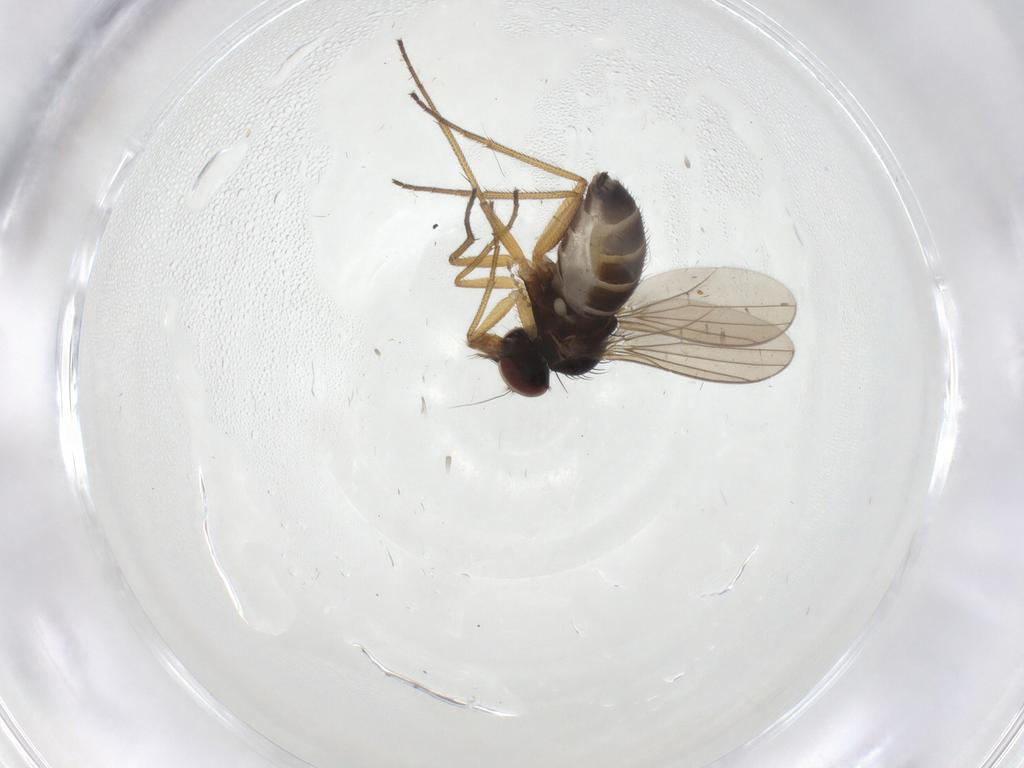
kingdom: Animalia
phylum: Arthropoda
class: Insecta
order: Diptera
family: Dolichopodidae
